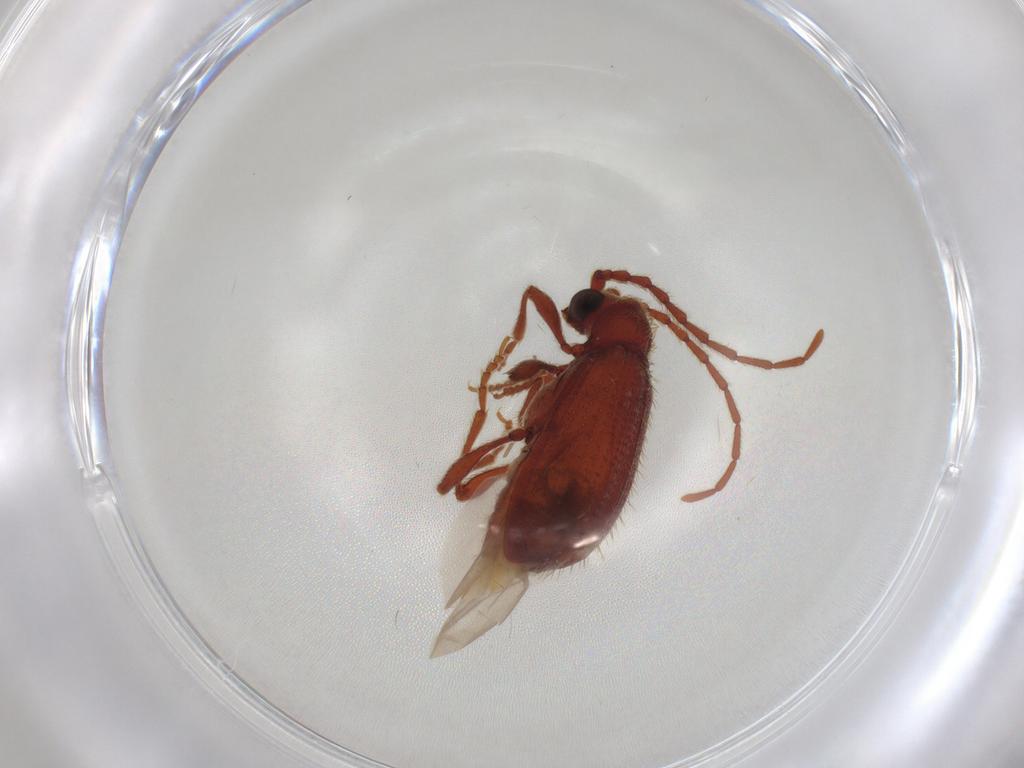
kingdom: Animalia
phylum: Arthropoda
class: Insecta
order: Coleoptera
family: Ptinidae
